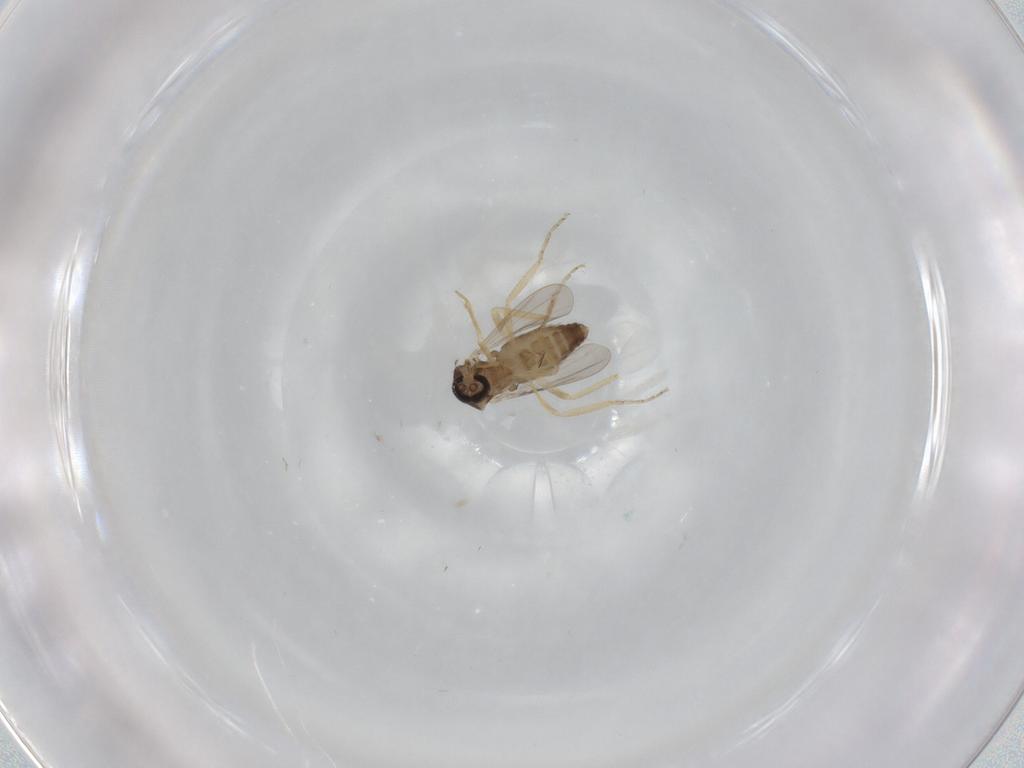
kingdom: Animalia
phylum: Arthropoda
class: Insecta
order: Diptera
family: Ceratopogonidae
